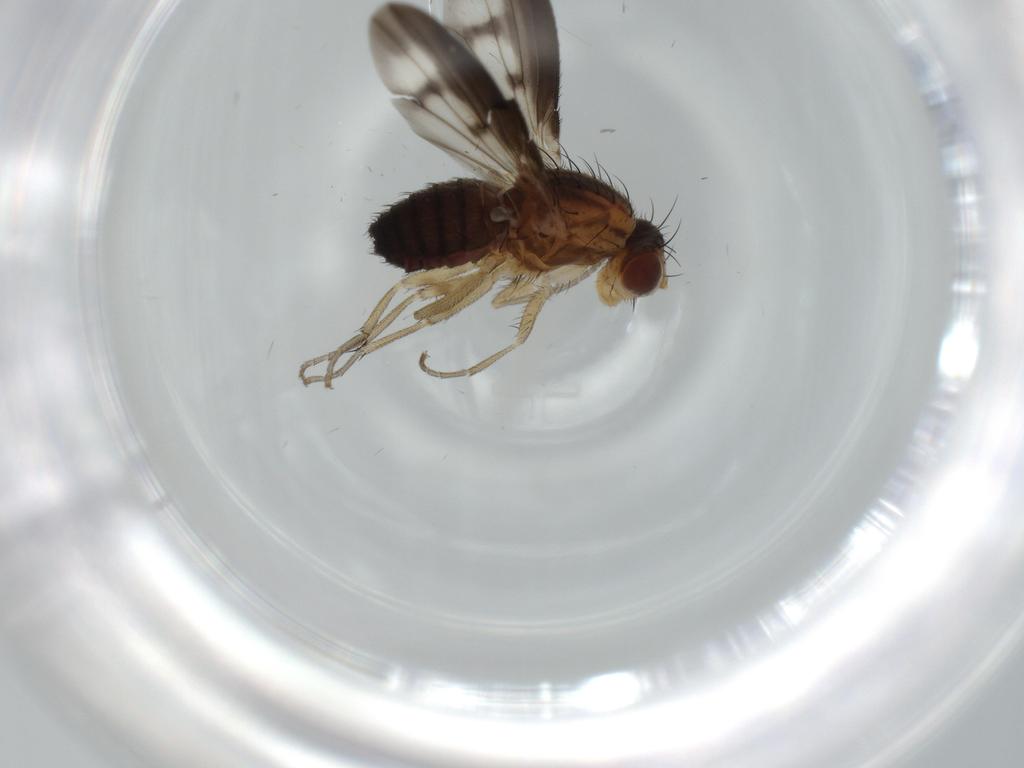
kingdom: Animalia
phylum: Arthropoda
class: Insecta
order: Diptera
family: Heleomyzidae
